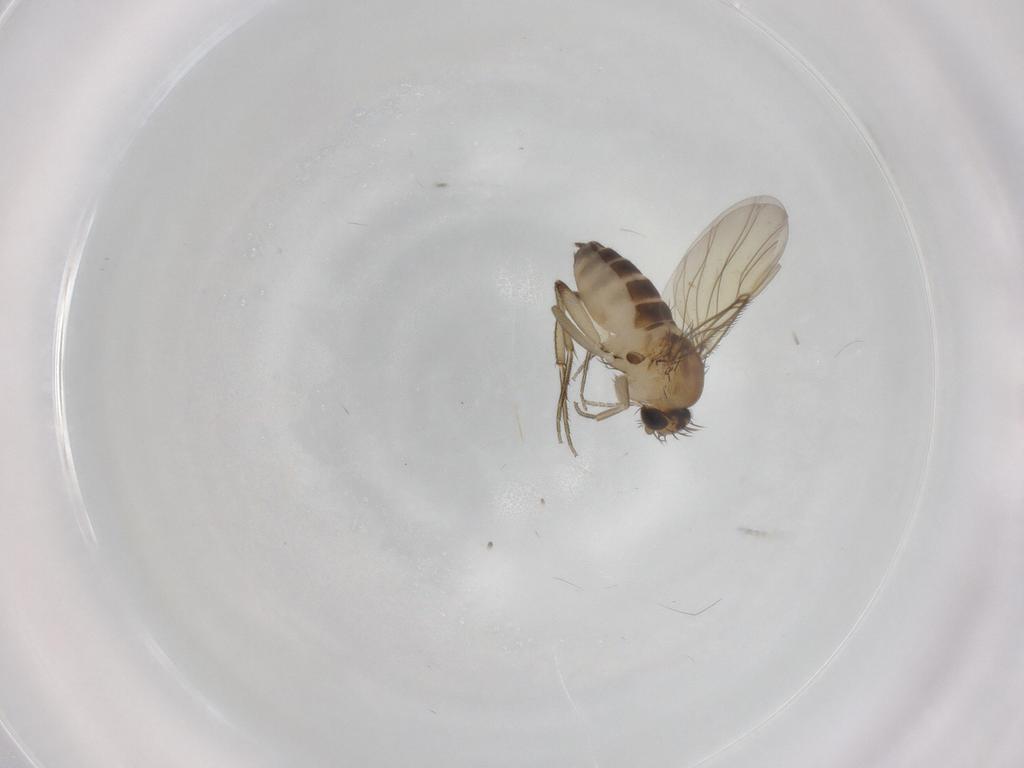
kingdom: Animalia
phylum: Arthropoda
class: Insecta
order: Diptera
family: Phoridae
